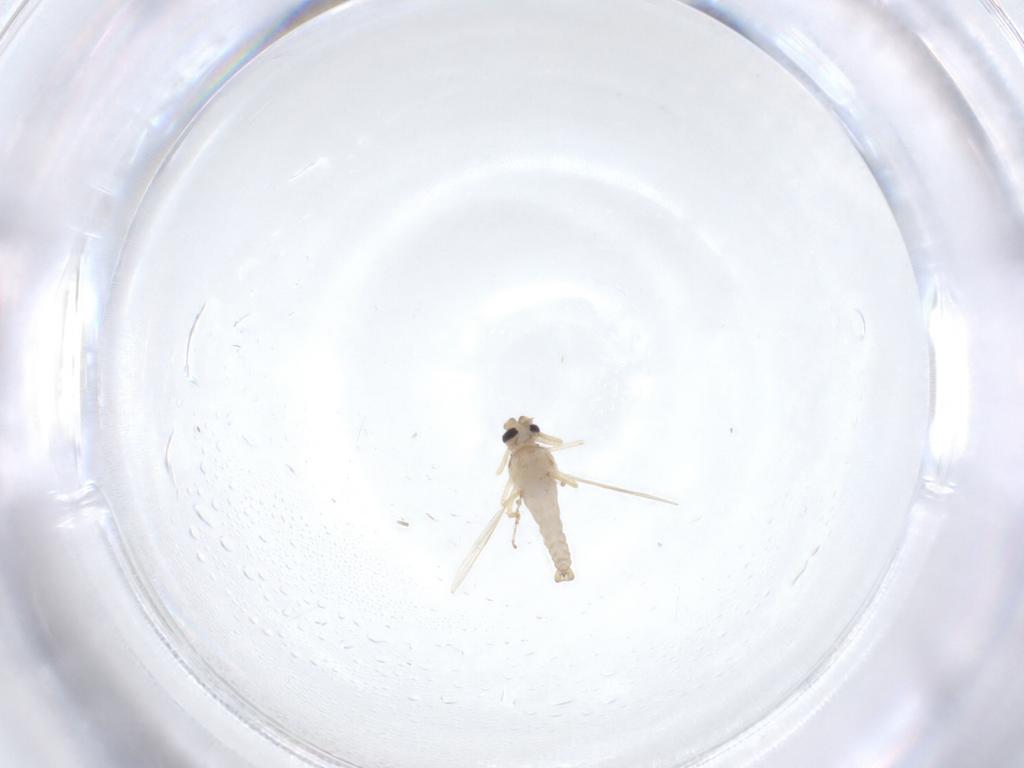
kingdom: Animalia
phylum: Arthropoda
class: Insecta
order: Diptera
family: Ceratopogonidae
